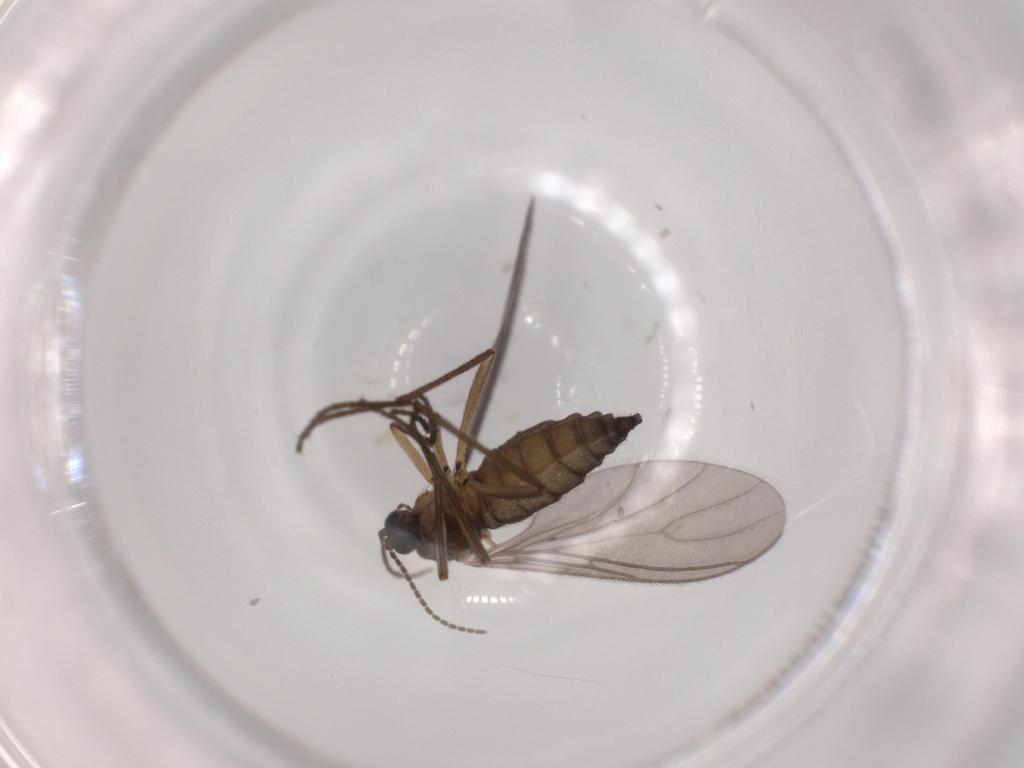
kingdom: Animalia
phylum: Arthropoda
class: Insecta
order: Diptera
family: Sciaridae
